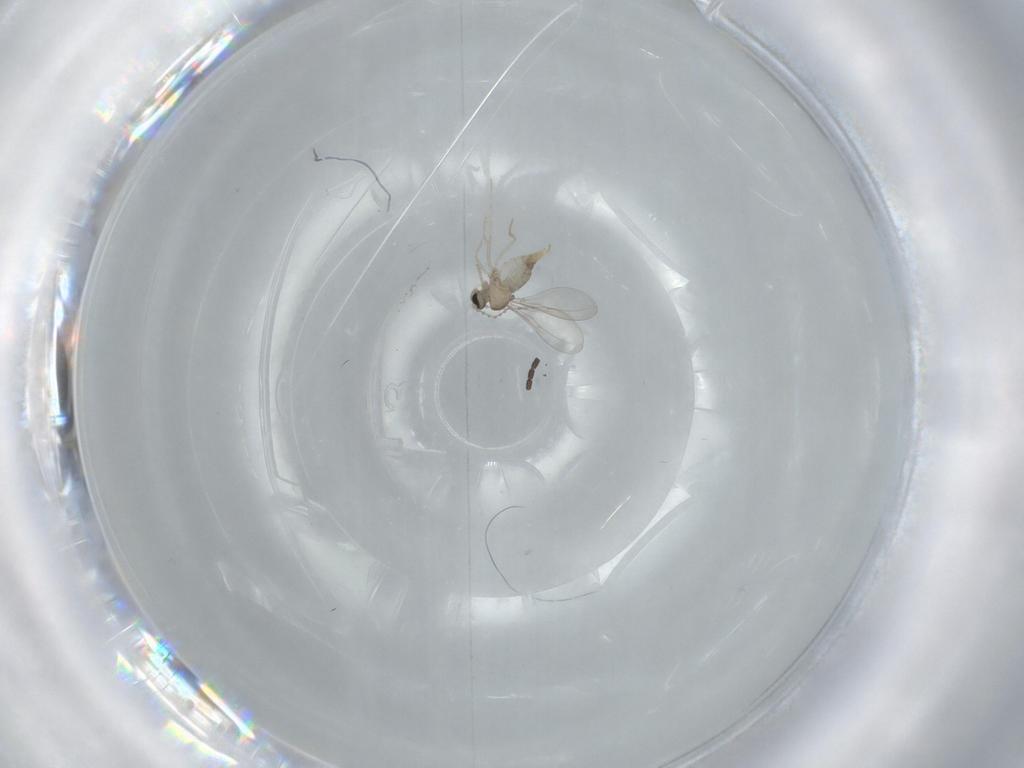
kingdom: Animalia
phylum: Arthropoda
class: Insecta
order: Diptera
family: Cecidomyiidae
